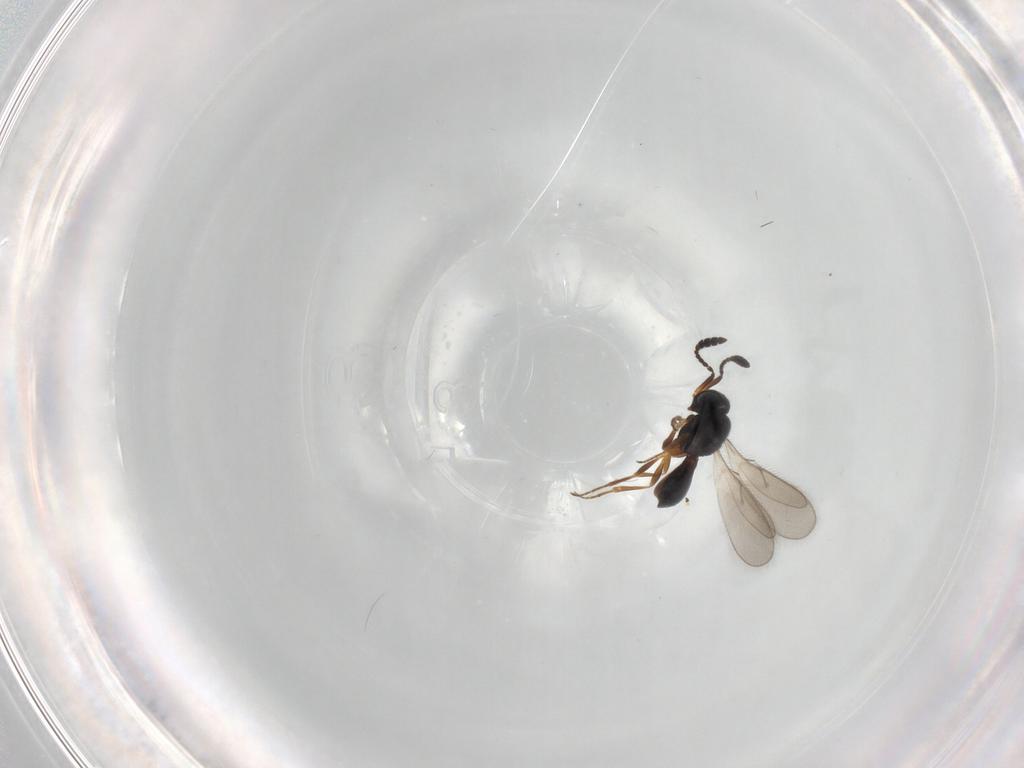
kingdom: Animalia
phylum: Arthropoda
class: Insecta
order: Hymenoptera
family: Scelionidae
